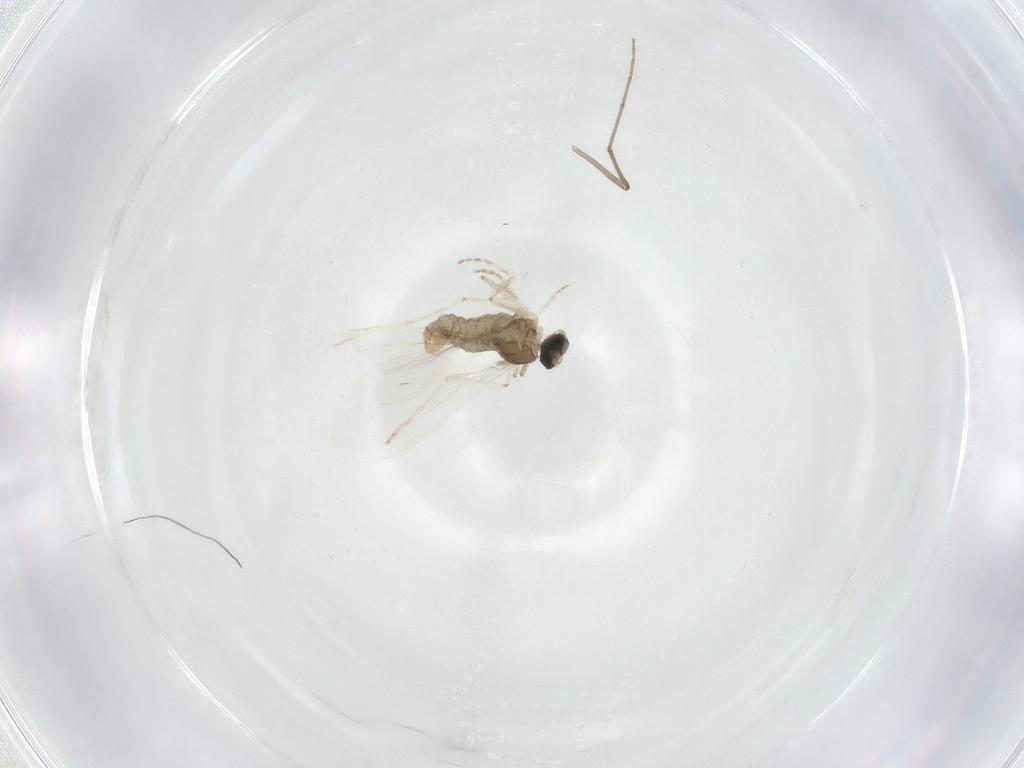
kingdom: Animalia
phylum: Arthropoda
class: Insecta
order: Diptera
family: Cecidomyiidae
